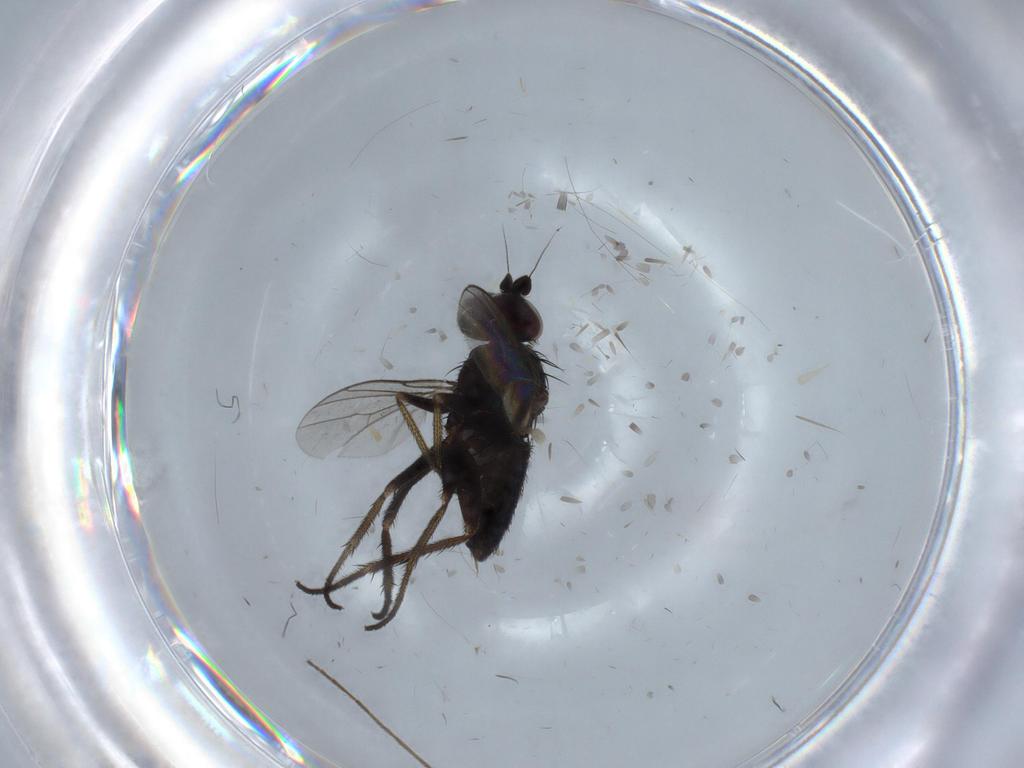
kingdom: Animalia
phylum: Arthropoda
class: Insecta
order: Diptera
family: Dolichopodidae
